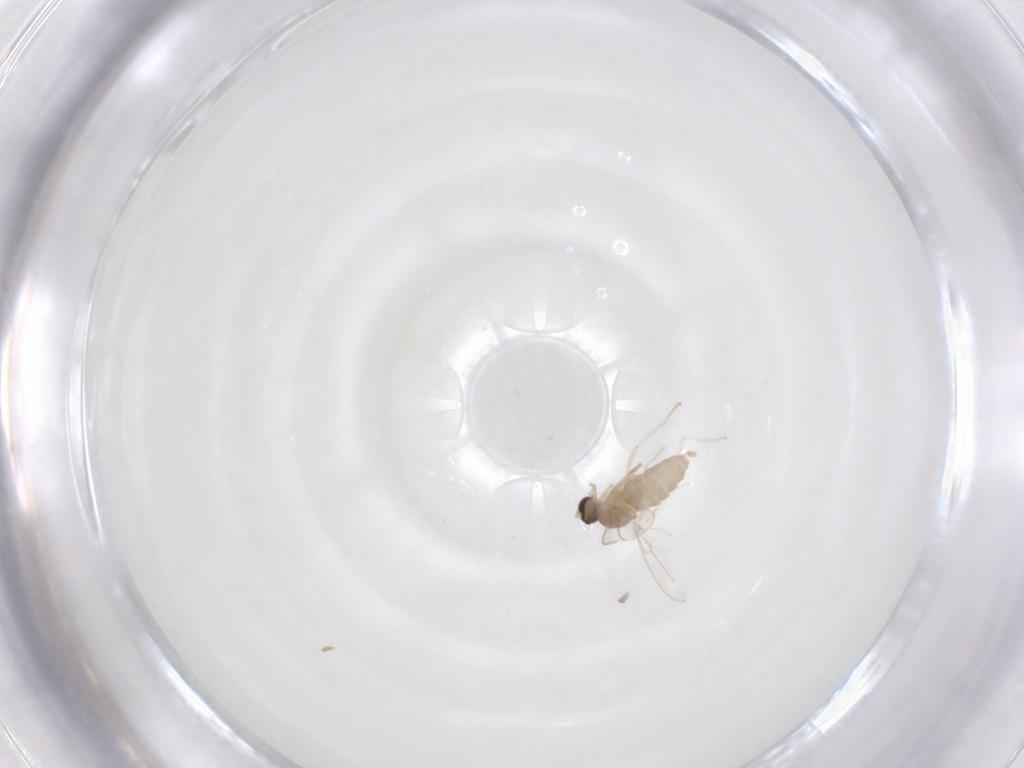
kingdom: Animalia
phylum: Arthropoda
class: Insecta
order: Diptera
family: Cecidomyiidae
